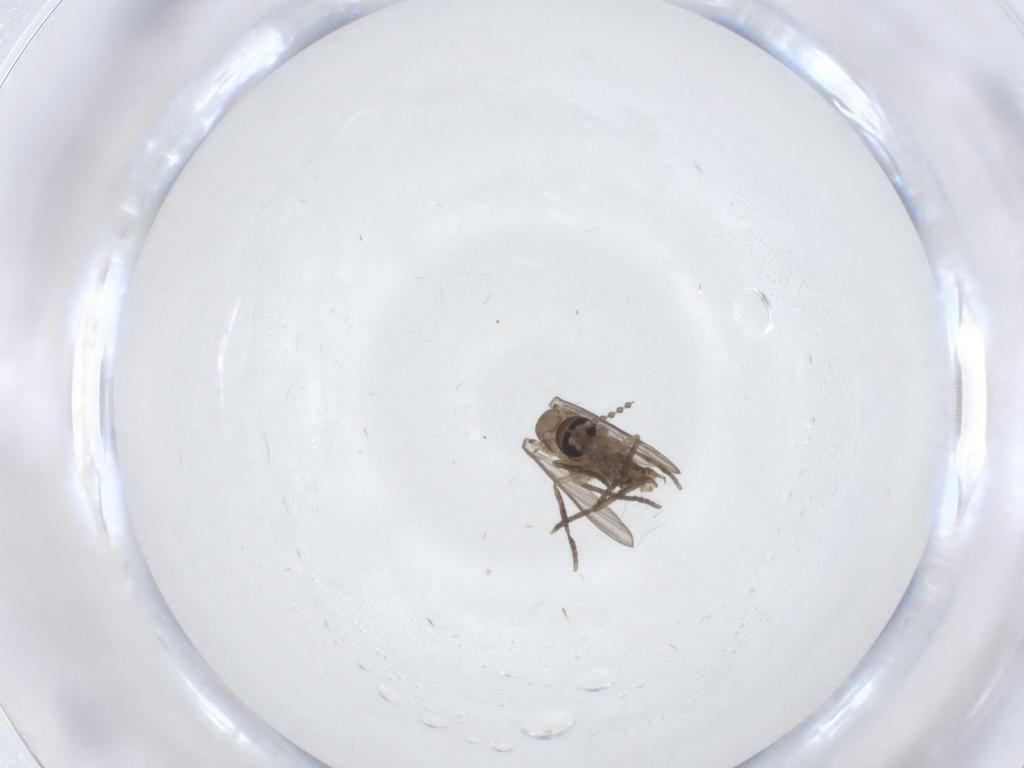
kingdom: Animalia
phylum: Arthropoda
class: Insecta
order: Diptera
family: Psychodidae
